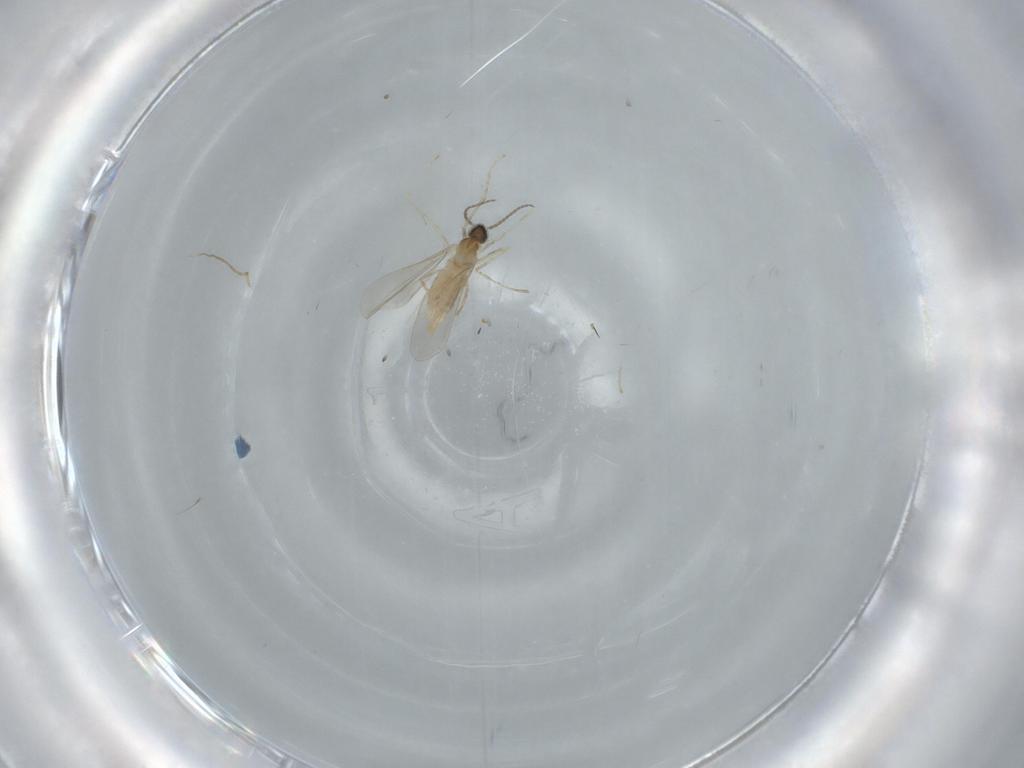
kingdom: Animalia
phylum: Arthropoda
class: Insecta
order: Diptera
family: Cecidomyiidae
